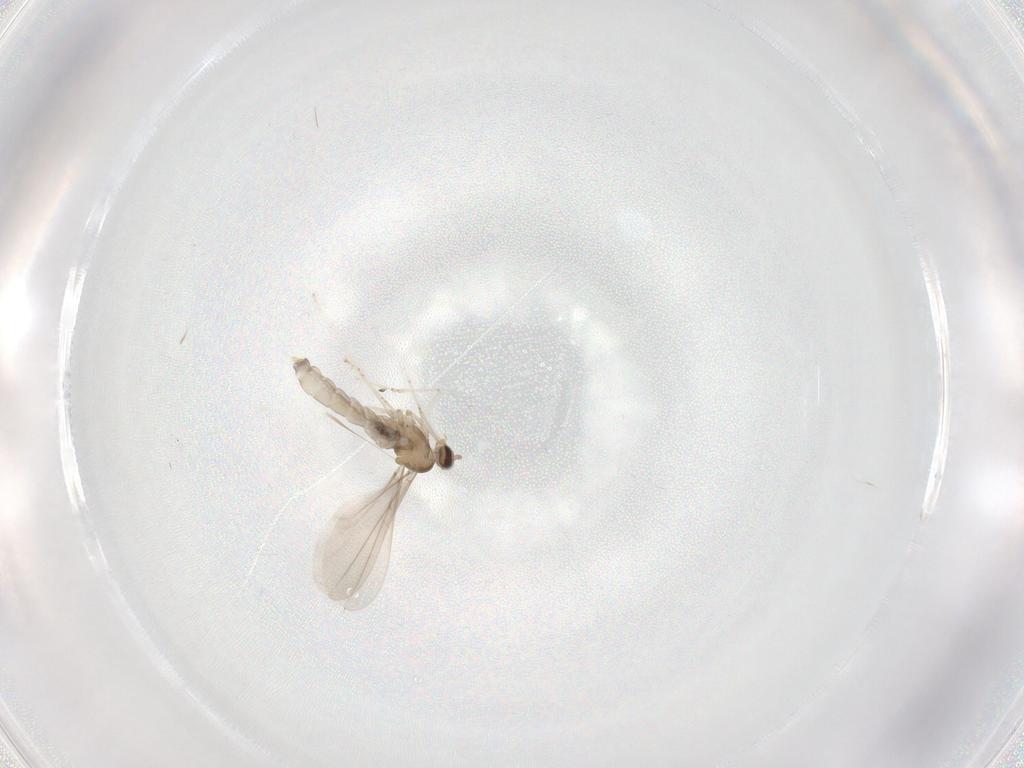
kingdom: Animalia
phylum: Arthropoda
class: Insecta
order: Diptera
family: Cecidomyiidae
